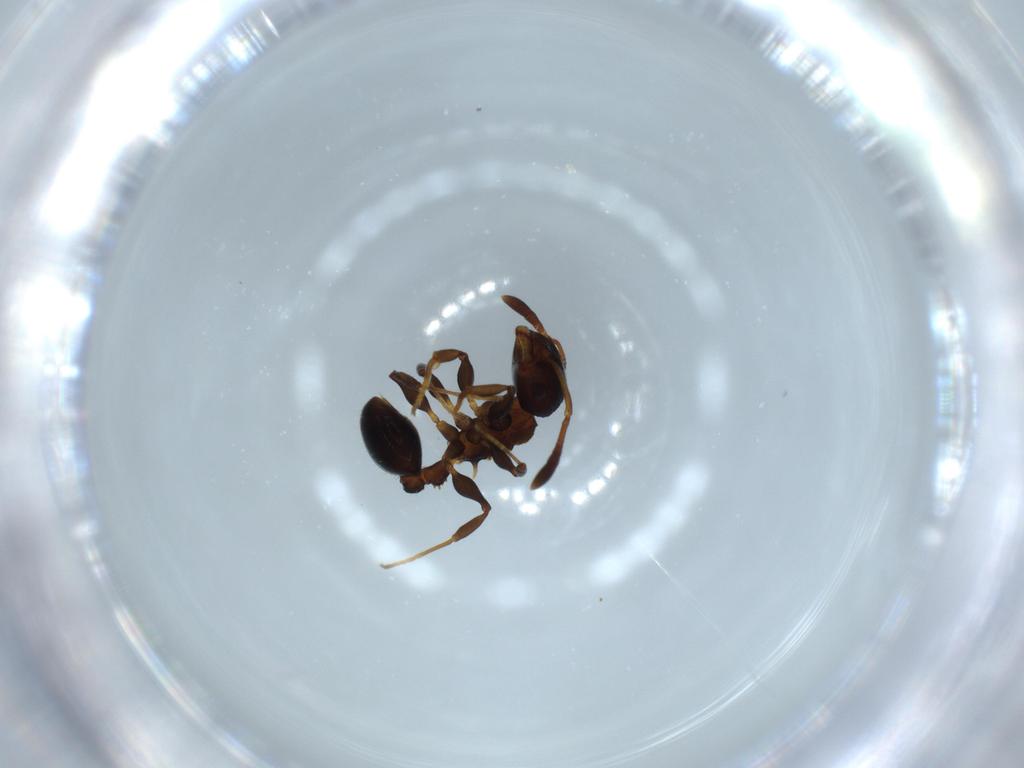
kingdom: Animalia
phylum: Arthropoda
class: Insecta
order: Hymenoptera
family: Formicidae
